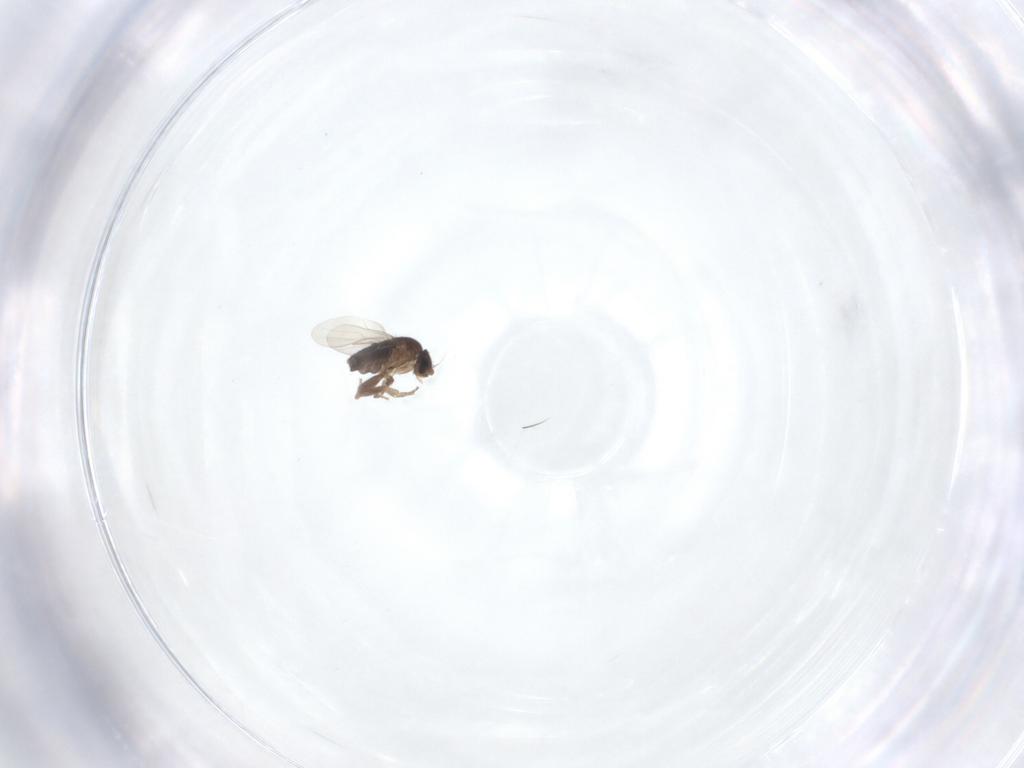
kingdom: Animalia
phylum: Arthropoda
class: Insecta
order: Diptera
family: Phoridae
